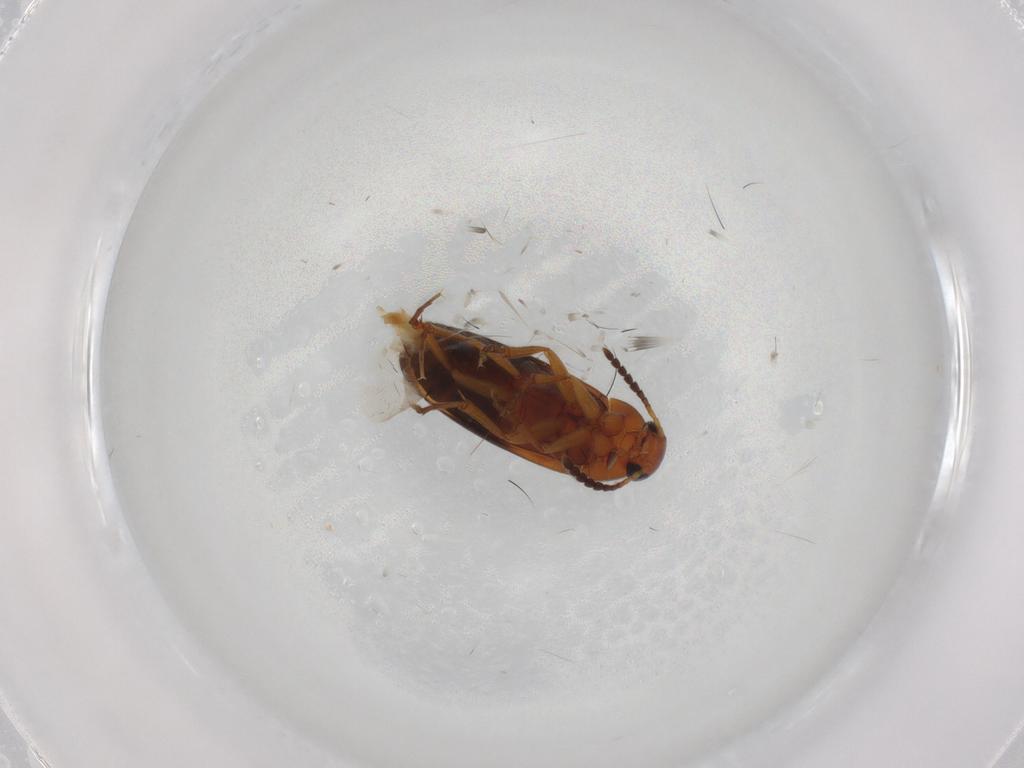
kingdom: Animalia
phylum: Arthropoda
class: Insecta
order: Coleoptera
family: Scraptiidae
